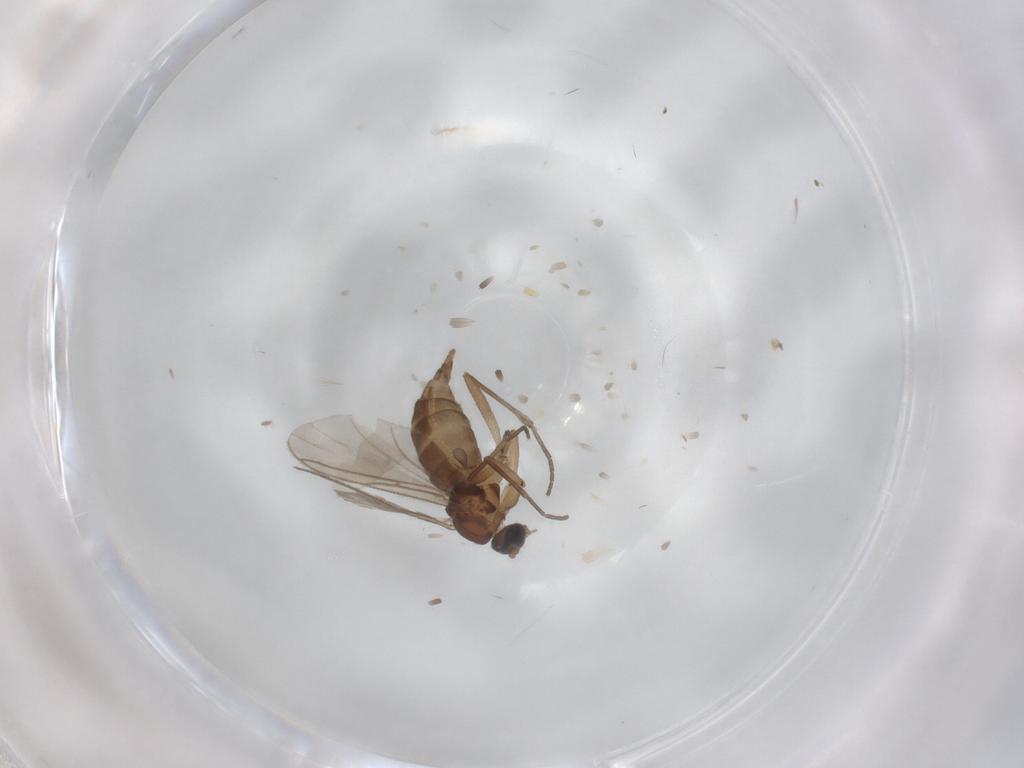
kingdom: Animalia
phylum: Arthropoda
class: Insecta
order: Diptera
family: Sciaridae
